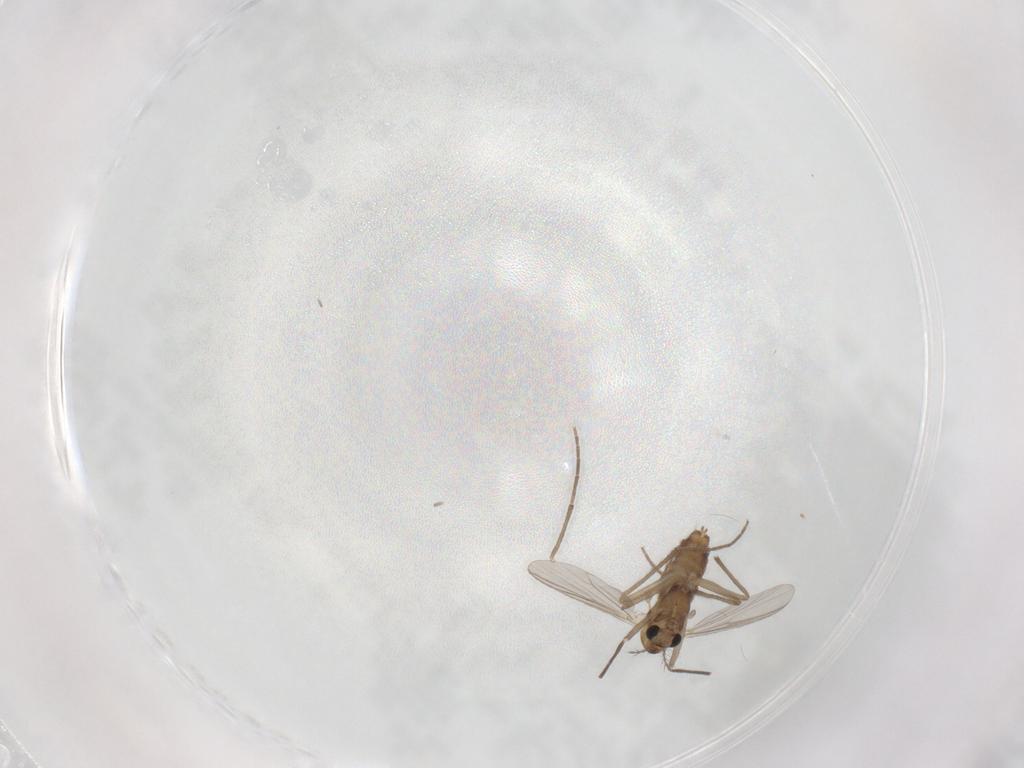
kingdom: Animalia
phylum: Arthropoda
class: Insecta
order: Diptera
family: Chironomidae
